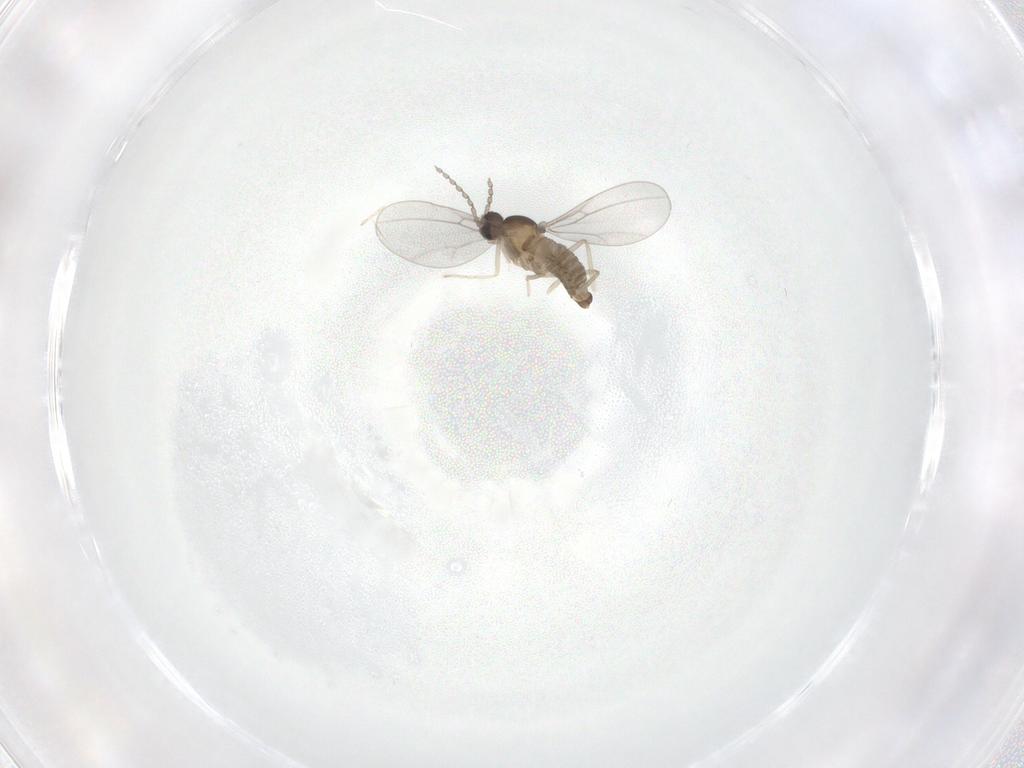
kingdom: Animalia
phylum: Arthropoda
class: Insecta
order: Diptera
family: Cecidomyiidae
